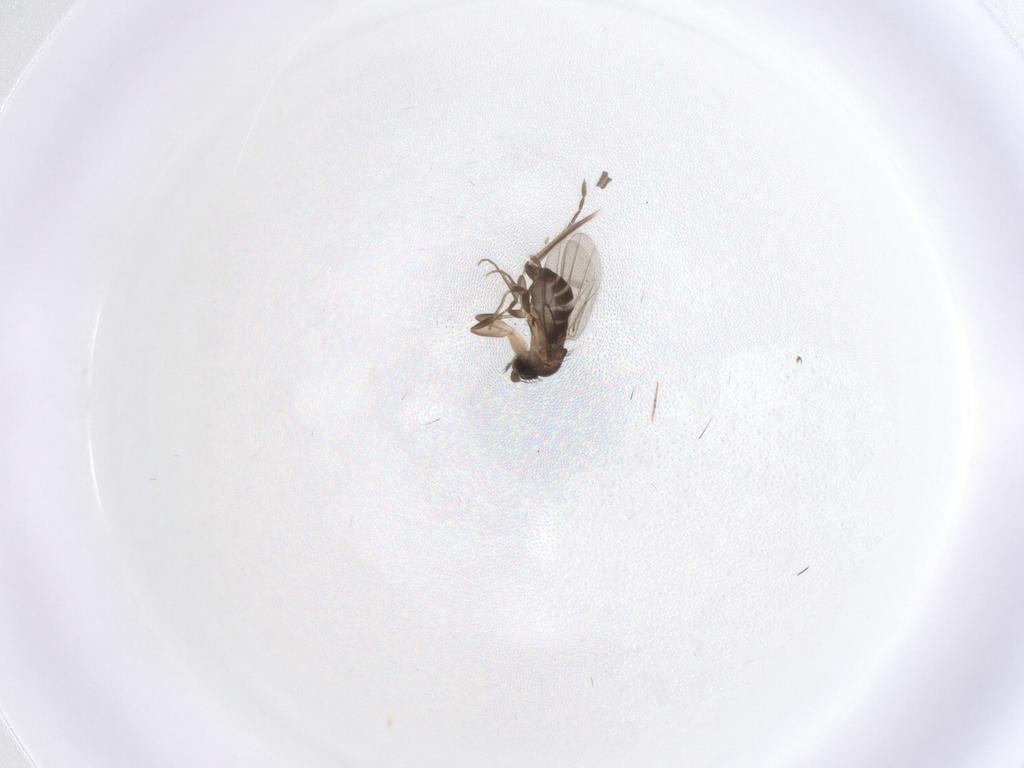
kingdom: Animalia
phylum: Arthropoda
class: Insecta
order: Diptera
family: Phoridae
